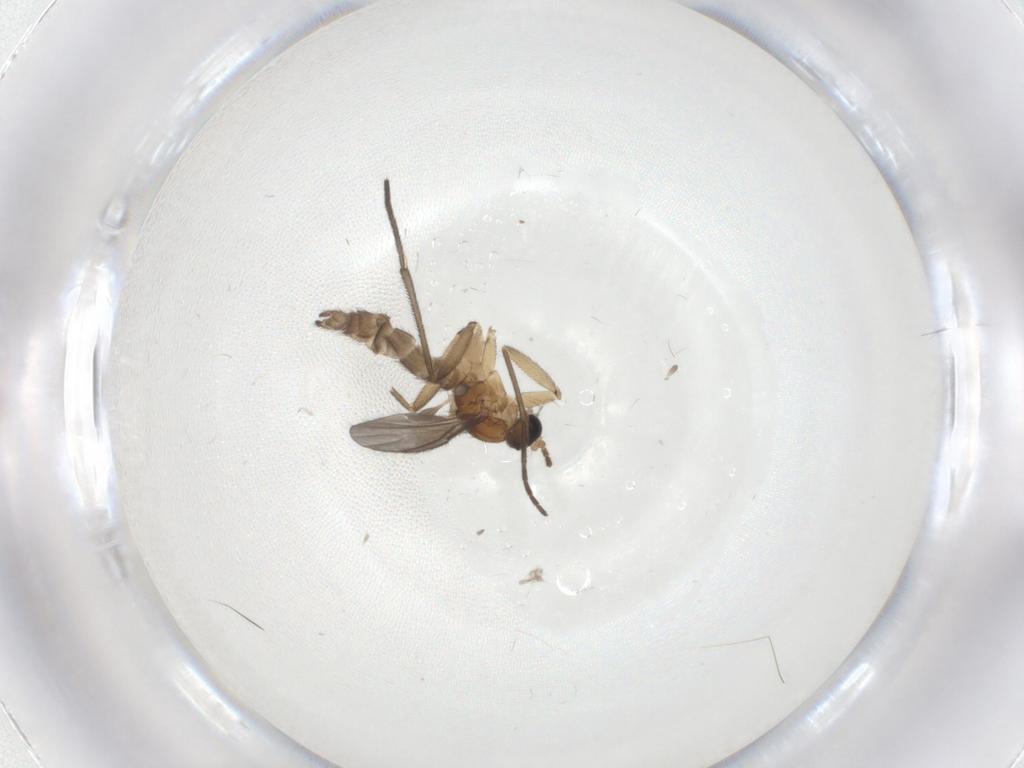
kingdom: Animalia
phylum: Arthropoda
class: Insecta
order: Diptera
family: Sciaridae
